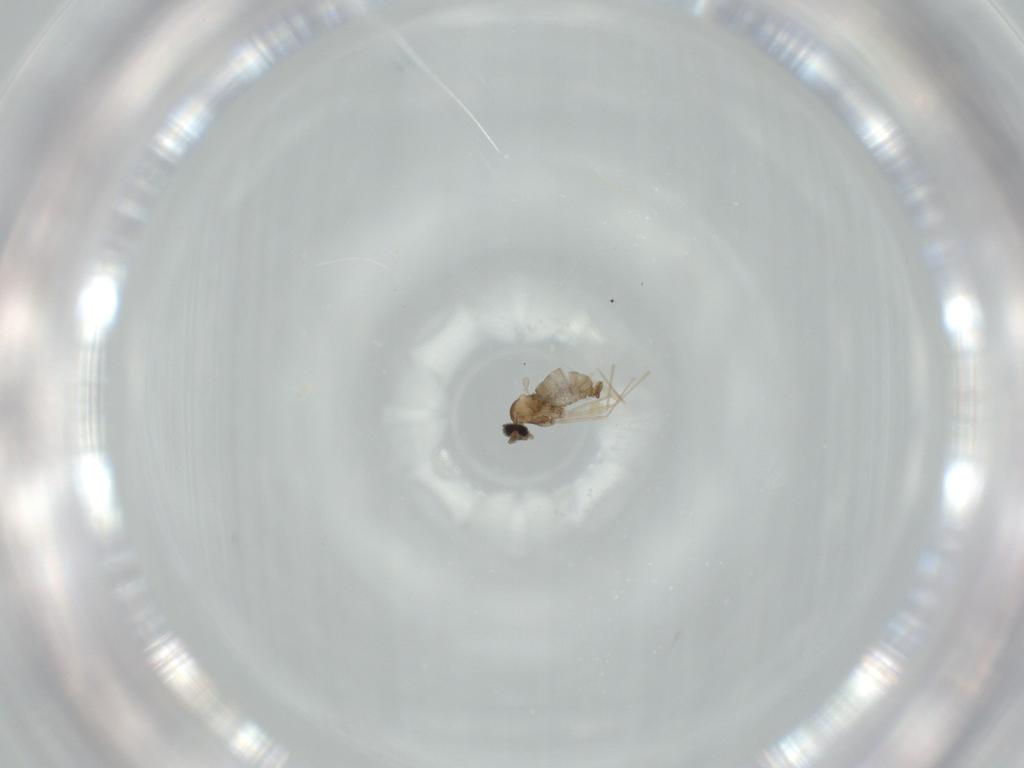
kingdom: Animalia
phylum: Arthropoda
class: Insecta
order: Diptera
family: Cecidomyiidae
